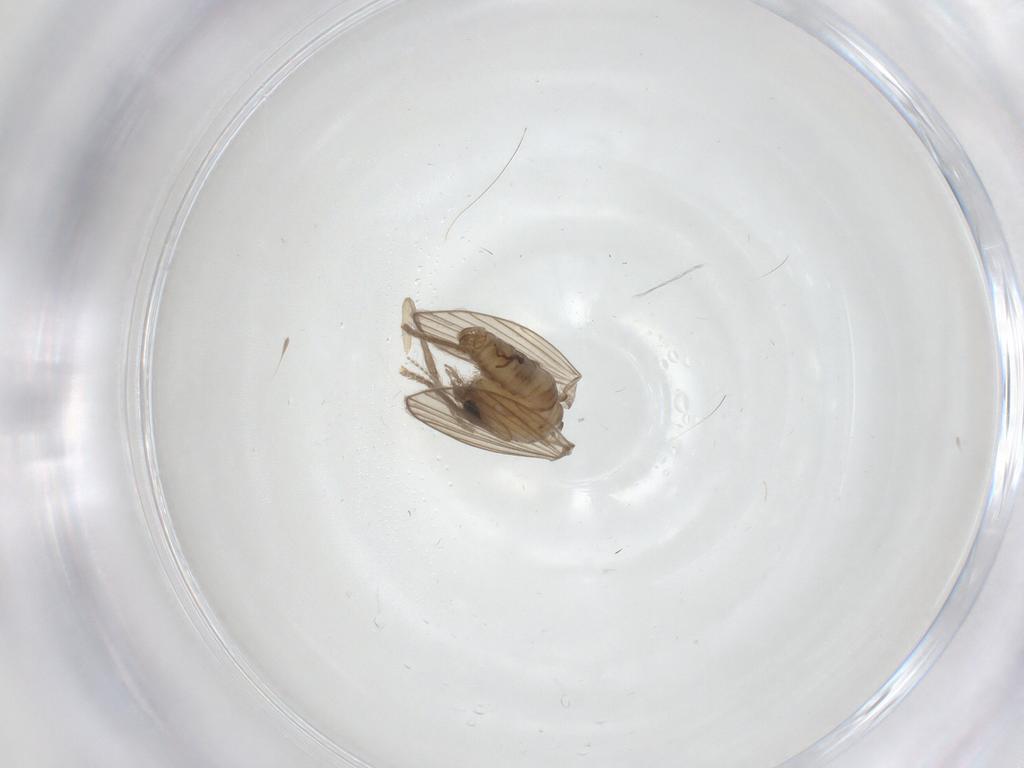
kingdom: Animalia
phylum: Arthropoda
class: Insecta
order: Diptera
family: Psychodidae
